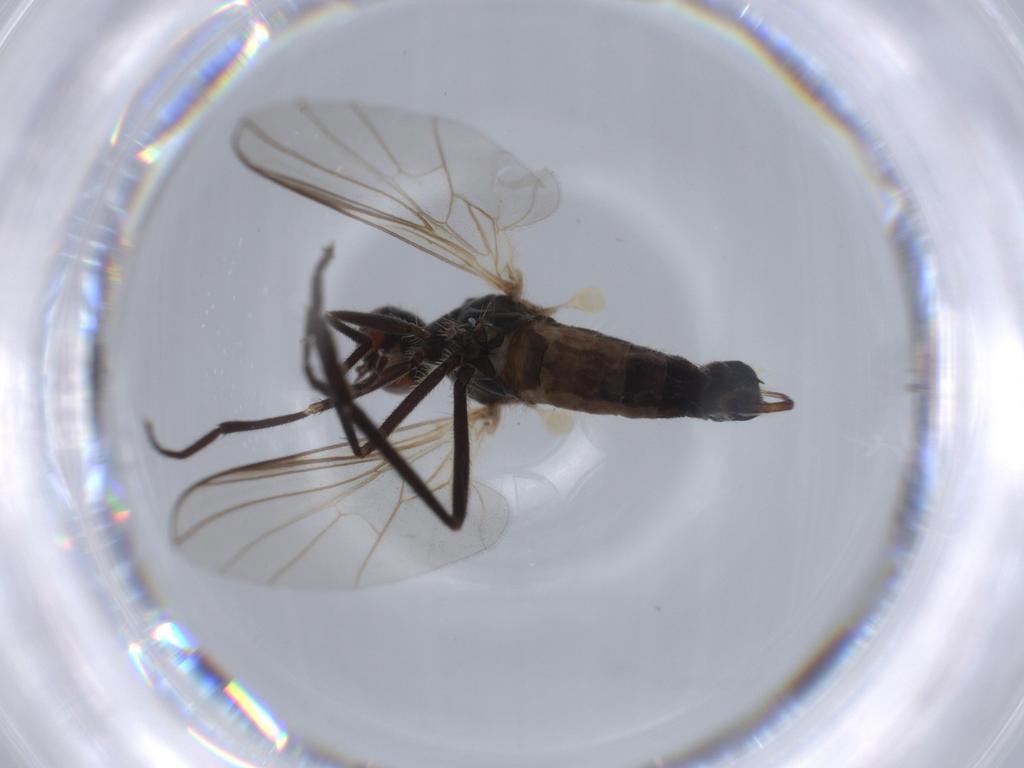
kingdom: Animalia
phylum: Arthropoda
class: Insecta
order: Diptera
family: Empididae
